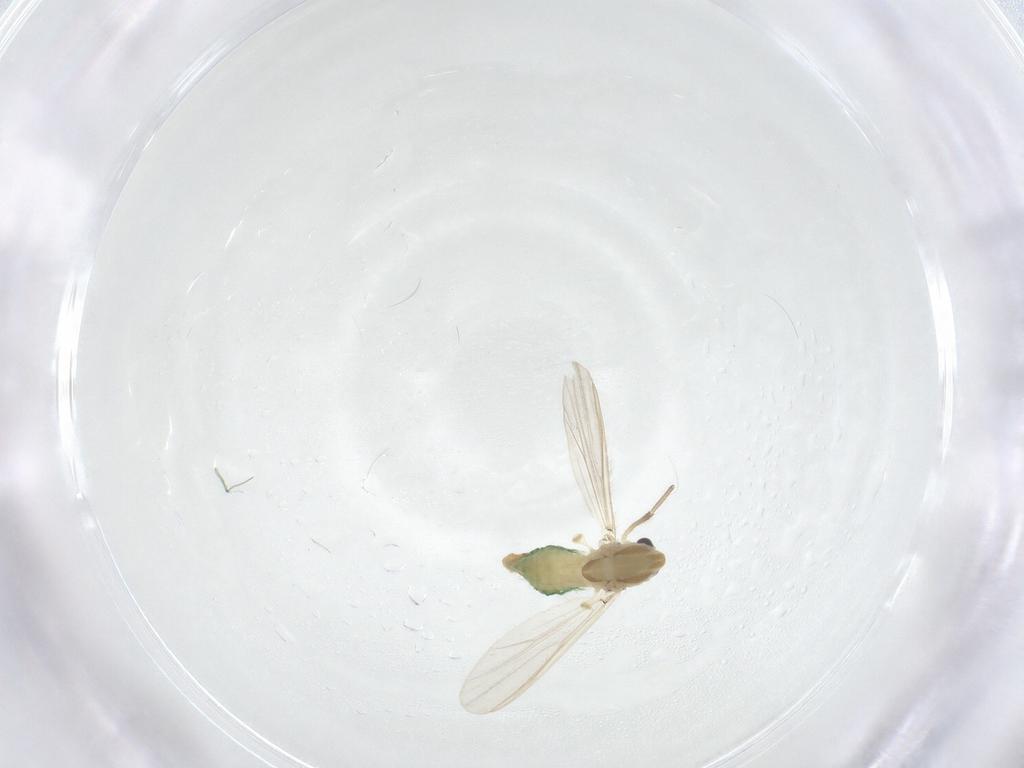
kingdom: Animalia
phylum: Arthropoda
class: Insecta
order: Diptera
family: Chironomidae
